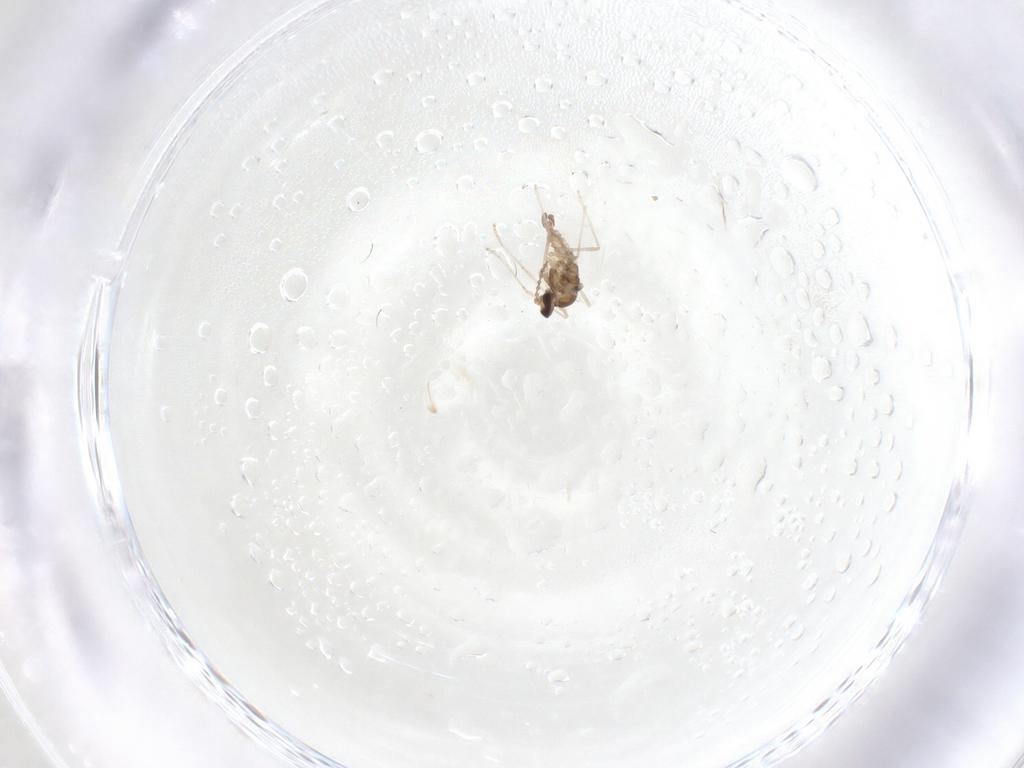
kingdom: Animalia
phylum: Arthropoda
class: Insecta
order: Diptera
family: Cecidomyiidae
